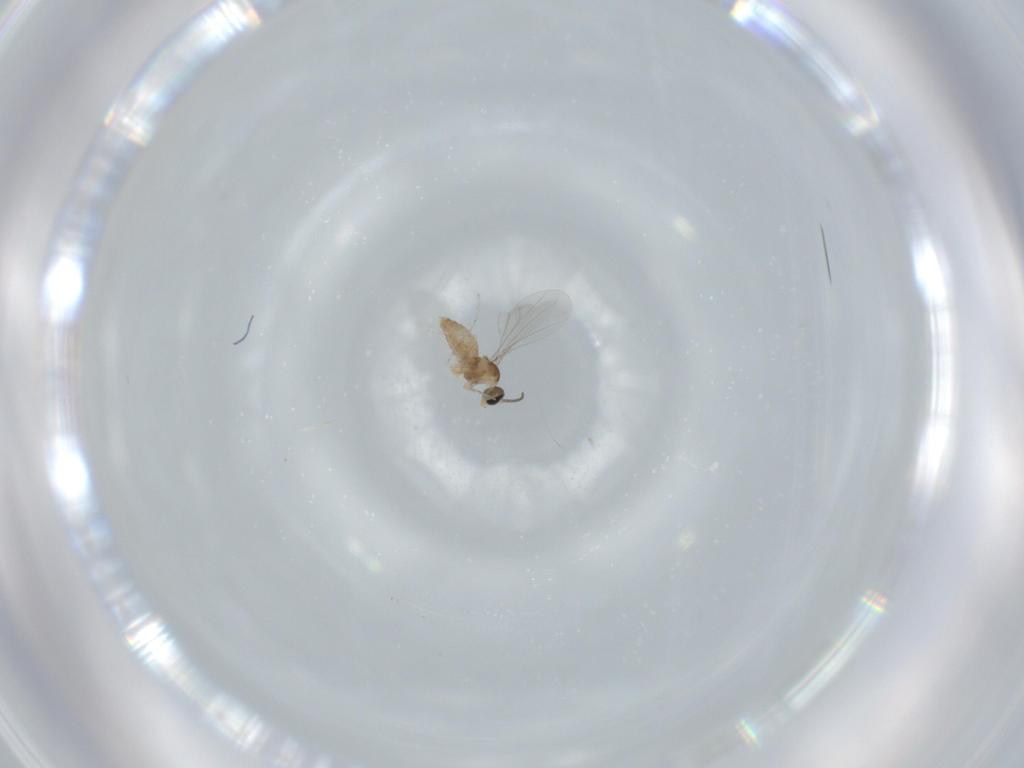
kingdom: Animalia
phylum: Arthropoda
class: Insecta
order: Diptera
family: Cecidomyiidae
